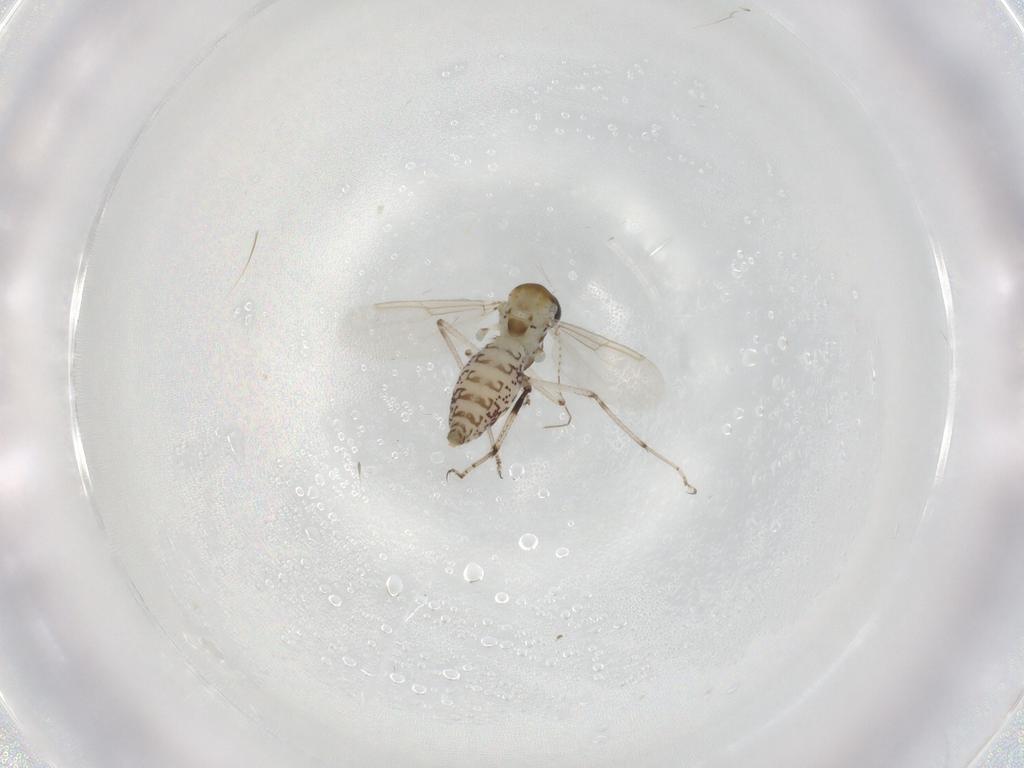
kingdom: Animalia
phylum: Arthropoda
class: Insecta
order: Diptera
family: Ceratopogonidae
